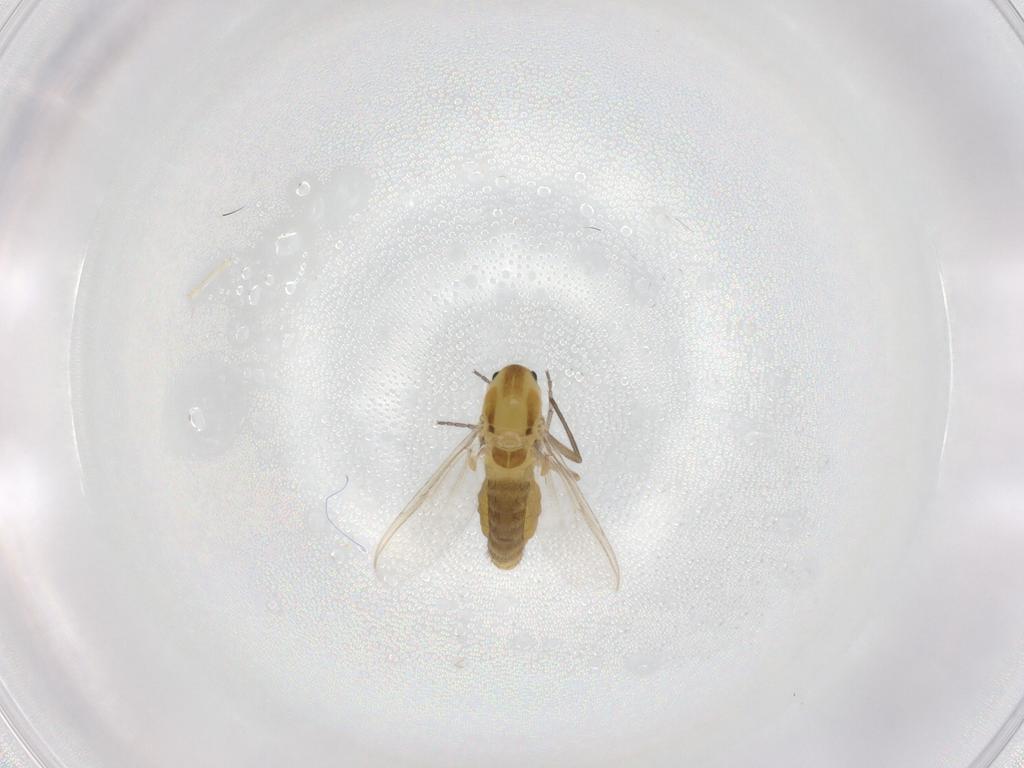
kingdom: Animalia
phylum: Arthropoda
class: Insecta
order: Diptera
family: Chironomidae
